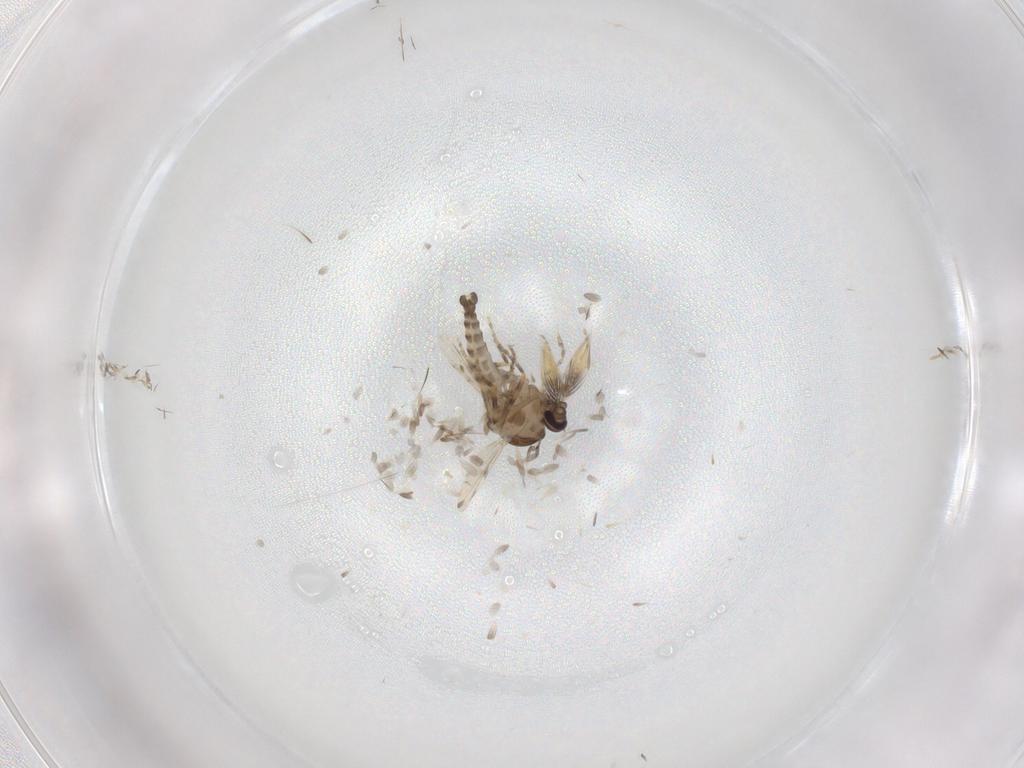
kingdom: Animalia
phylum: Arthropoda
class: Insecta
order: Diptera
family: Ceratopogonidae
